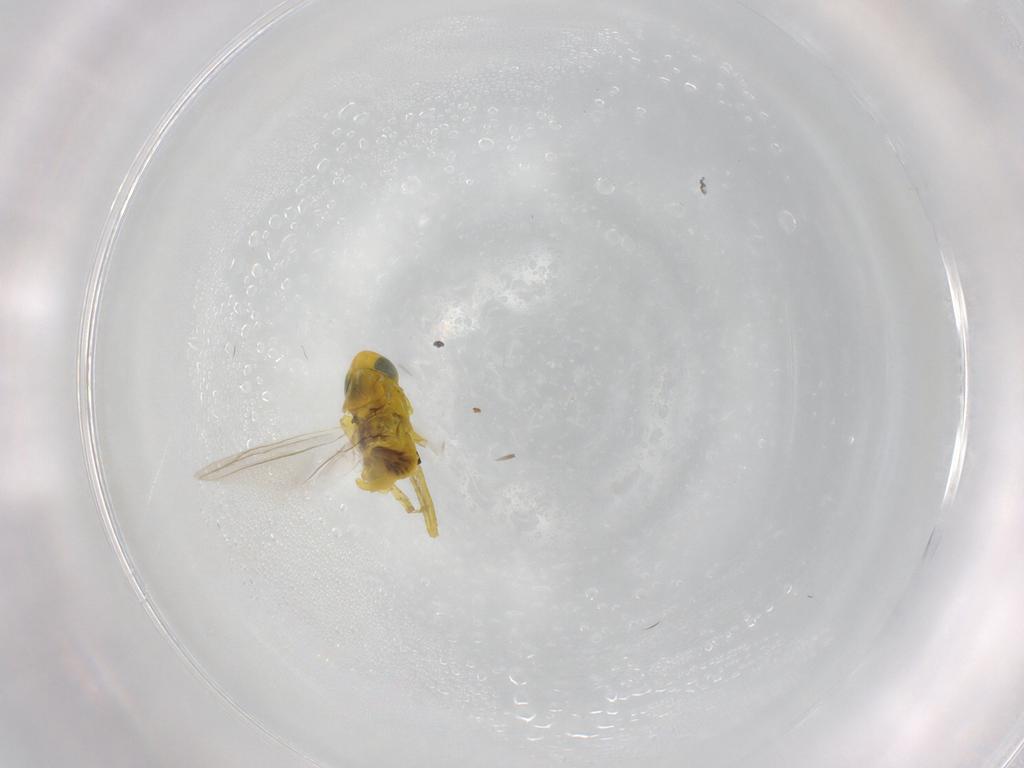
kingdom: Animalia
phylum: Arthropoda
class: Insecta
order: Hemiptera
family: Cicadellidae
